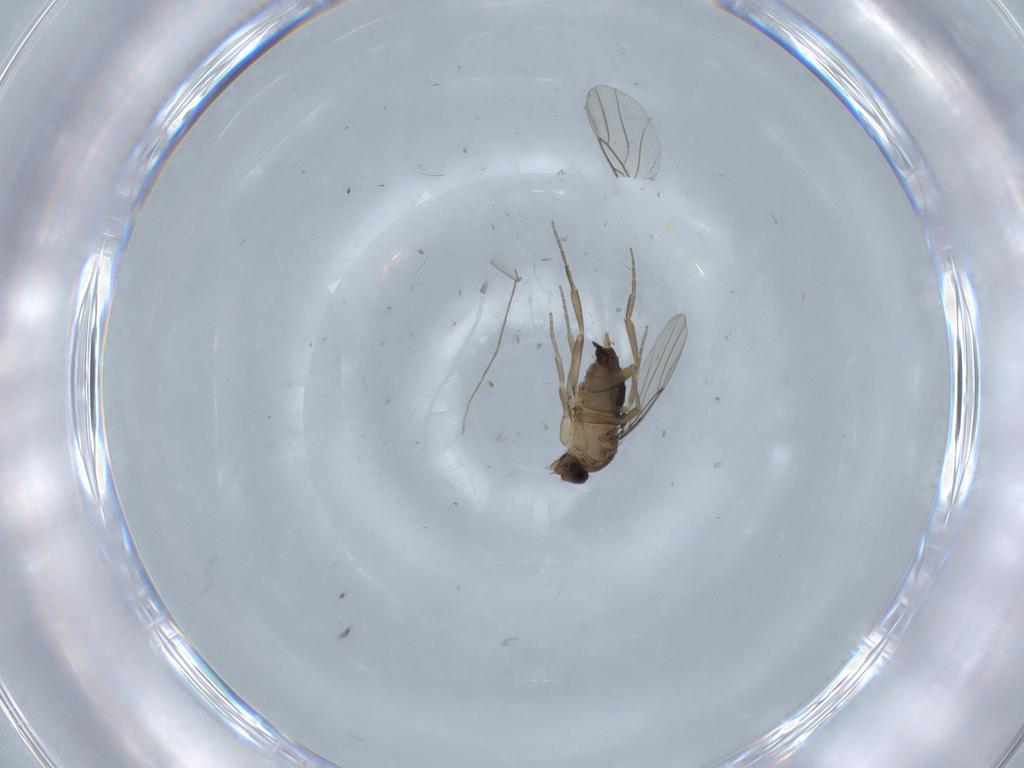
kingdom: Animalia
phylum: Arthropoda
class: Insecta
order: Diptera
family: Phoridae
